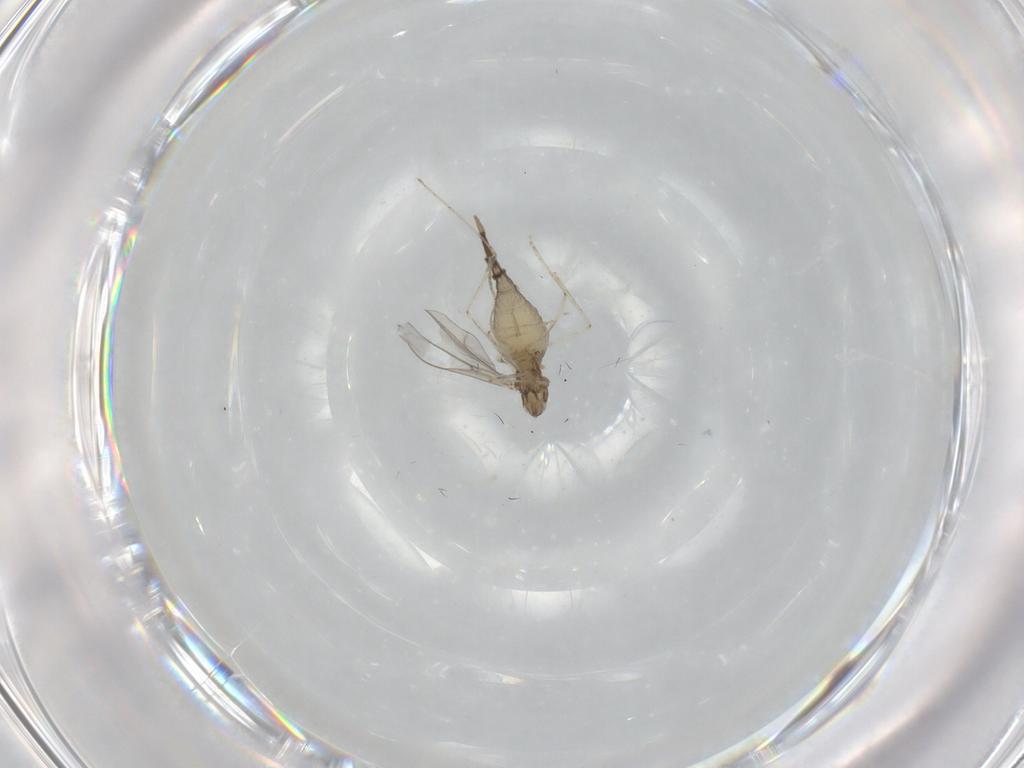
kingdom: Animalia
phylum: Arthropoda
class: Insecta
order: Diptera
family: Cecidomyiidae
